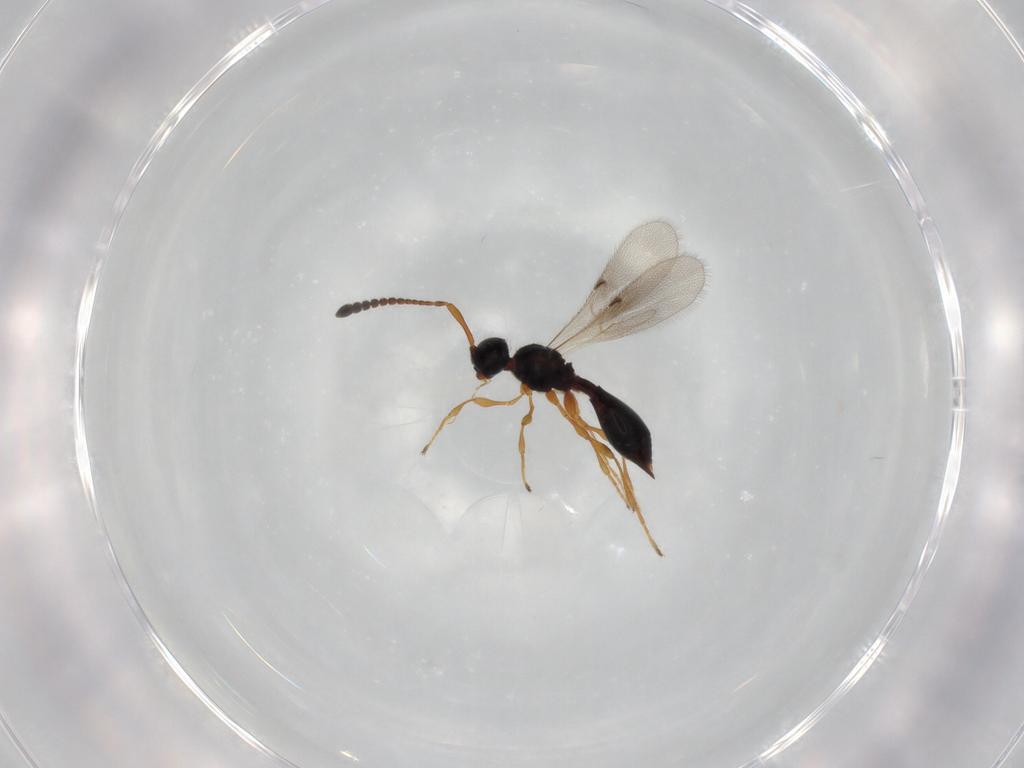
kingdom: Animalia
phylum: Arthropoda
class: Insecta
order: Hymenoptera
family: Diapriidae
